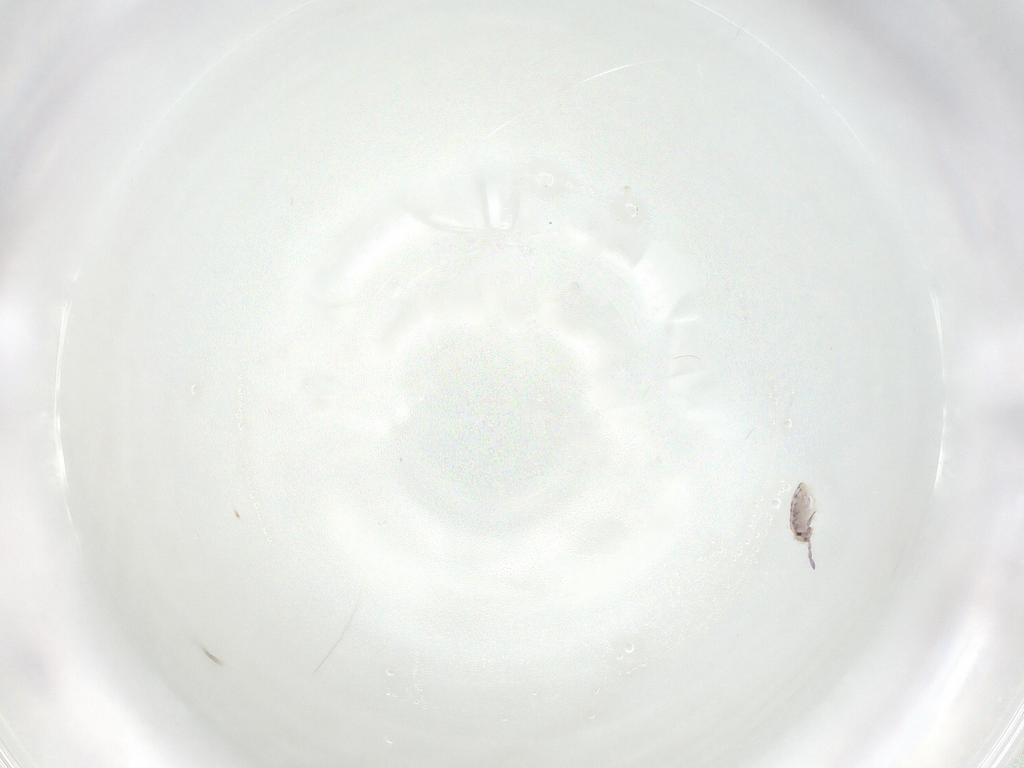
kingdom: Animalia
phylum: Arthropoda
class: Collembola
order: Entomobryomorpha
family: Entomobryidae
